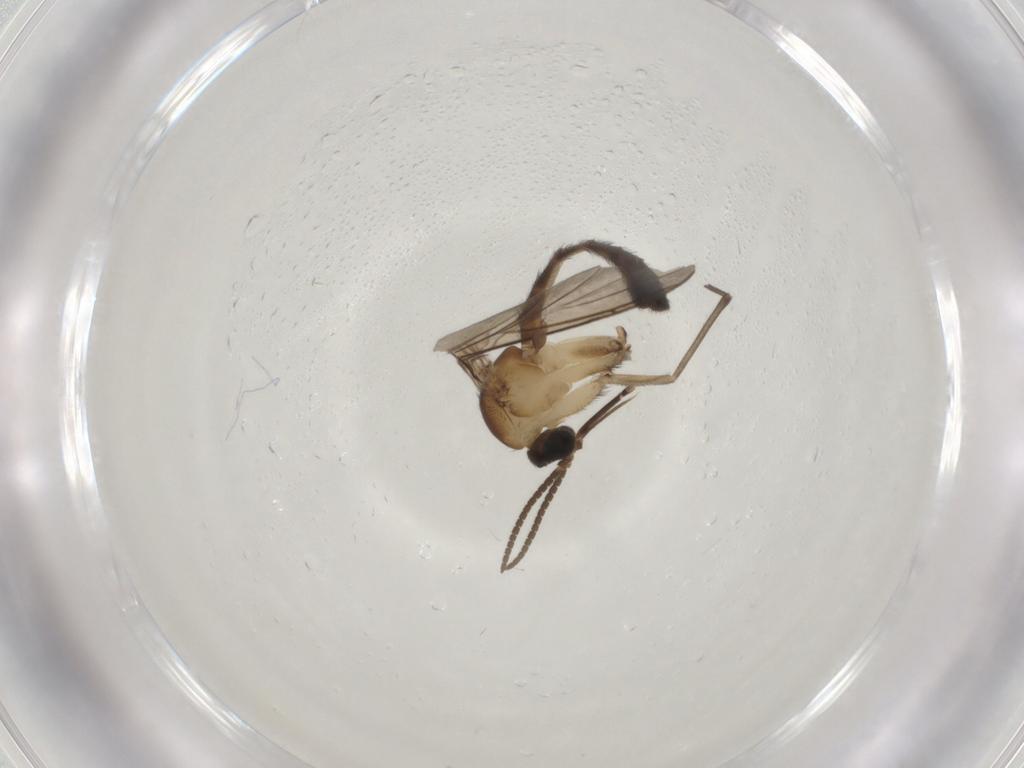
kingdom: Animalia
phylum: Arthropoda
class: Insecta
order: Diptera
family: Keroplatidae
